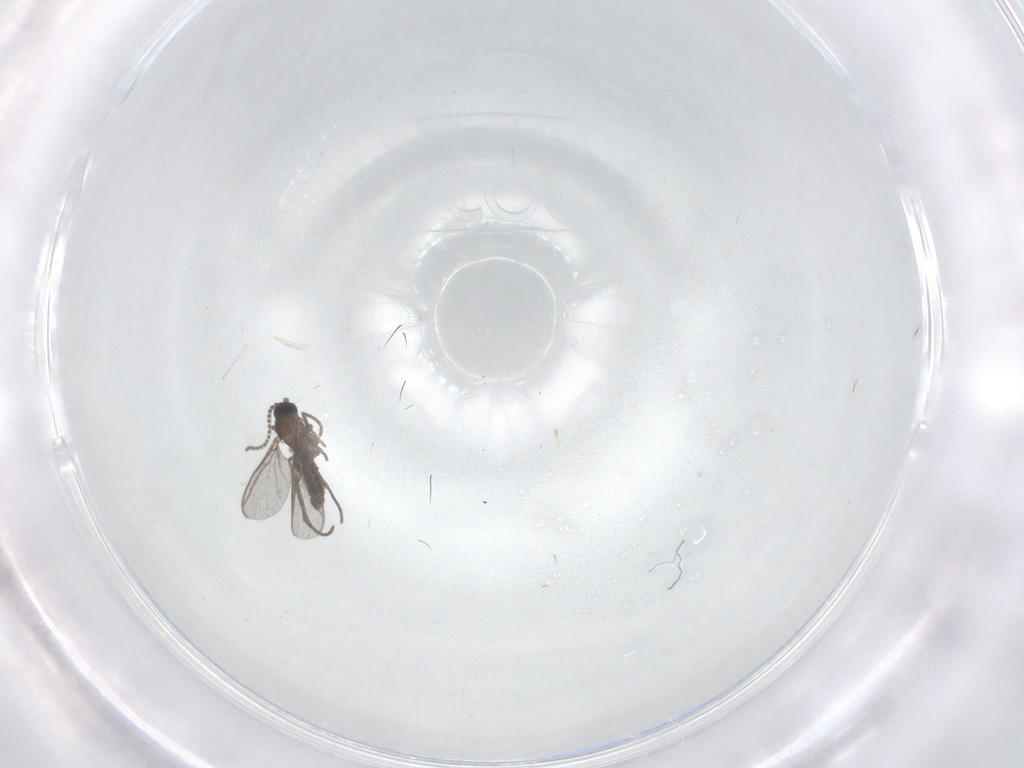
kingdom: Animalia
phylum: Arthropoda
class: Insecta
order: Diptera
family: Sciaridae
